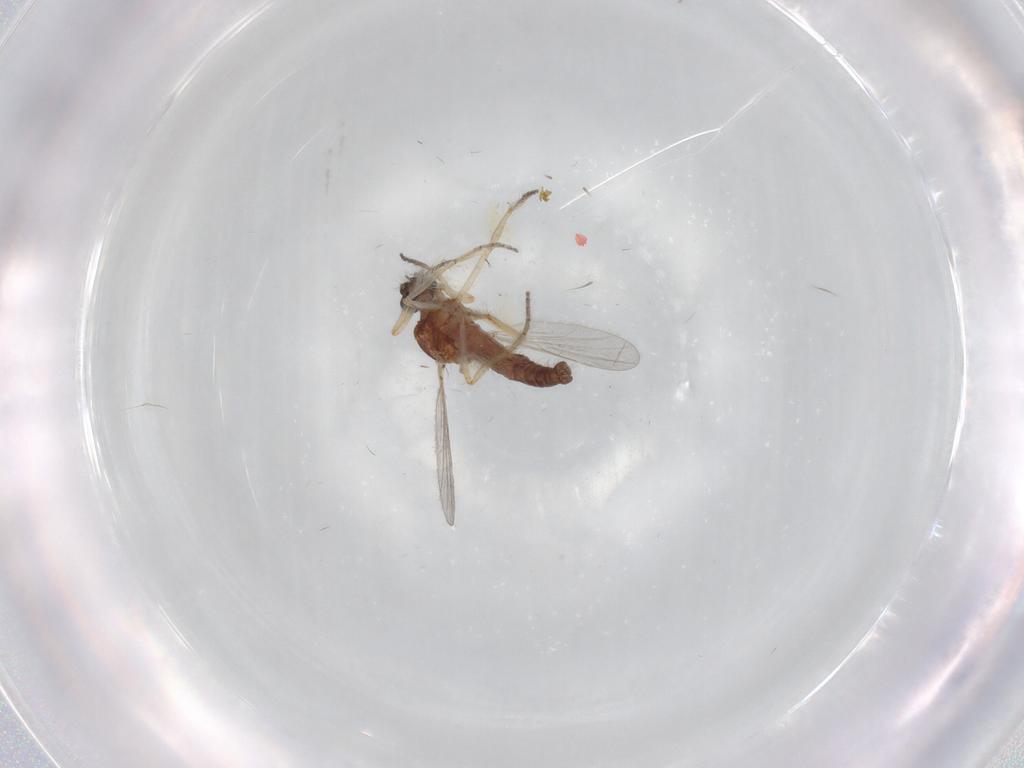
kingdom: Animalia
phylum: Arthropoda
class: Insecta
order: Diptera
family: Ceratopogonidae
